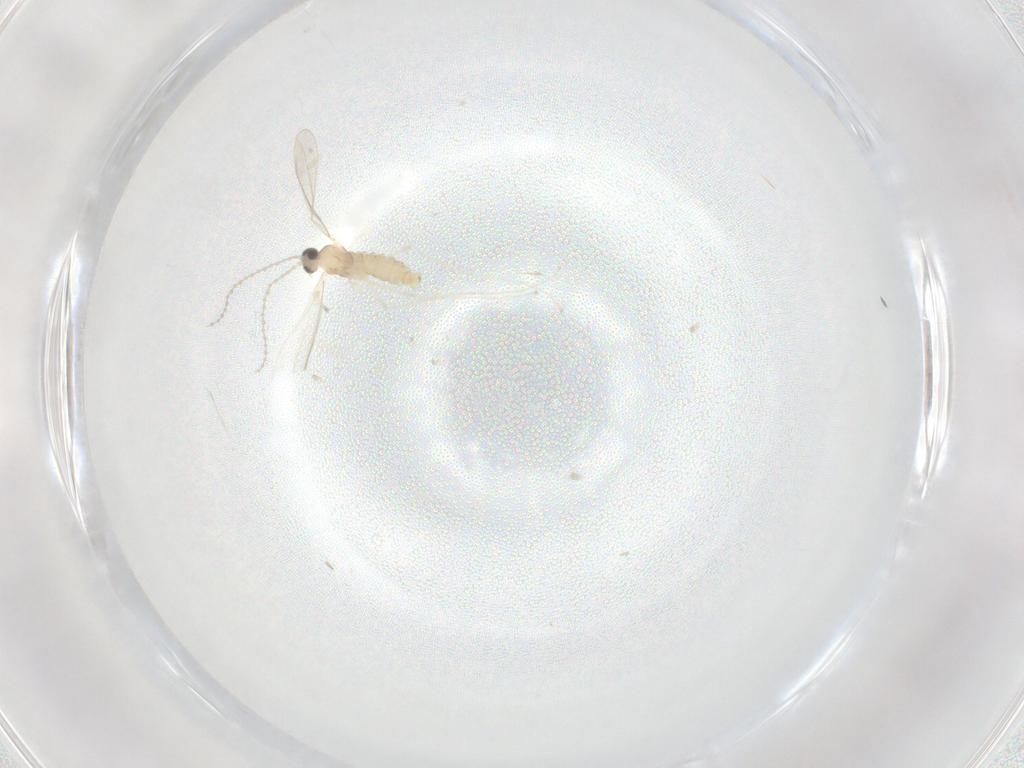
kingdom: Animalia
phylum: Arthropoda
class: Insecta
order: Diptera
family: Cecidomyiidae
